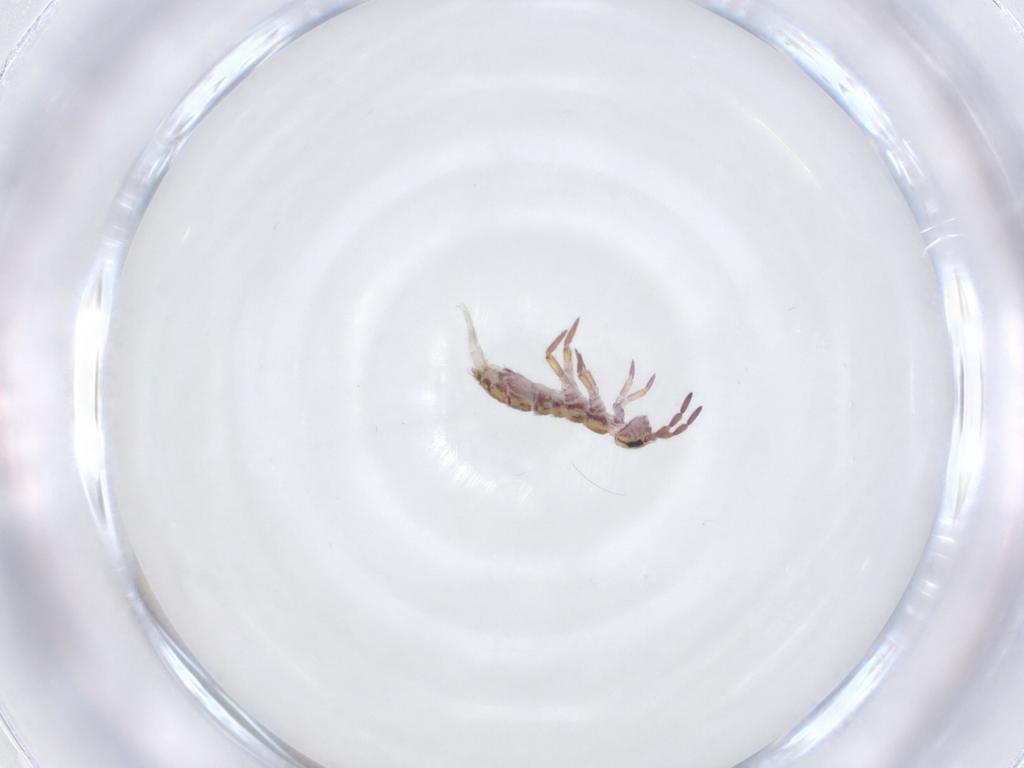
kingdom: Animalia
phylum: Arthropoda
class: Collembola
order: Entomobryomorpha
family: Isotomidae
